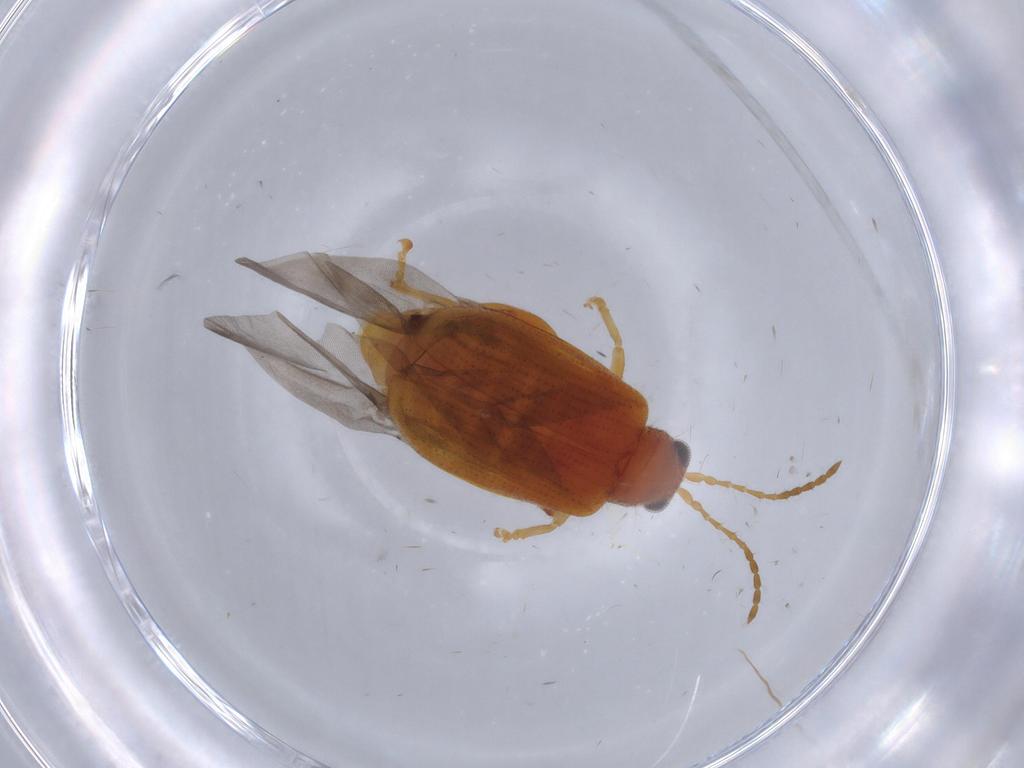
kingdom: Animalia
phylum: Arthropoda
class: Insecta
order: Coleoptera
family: Chrysomelidae
